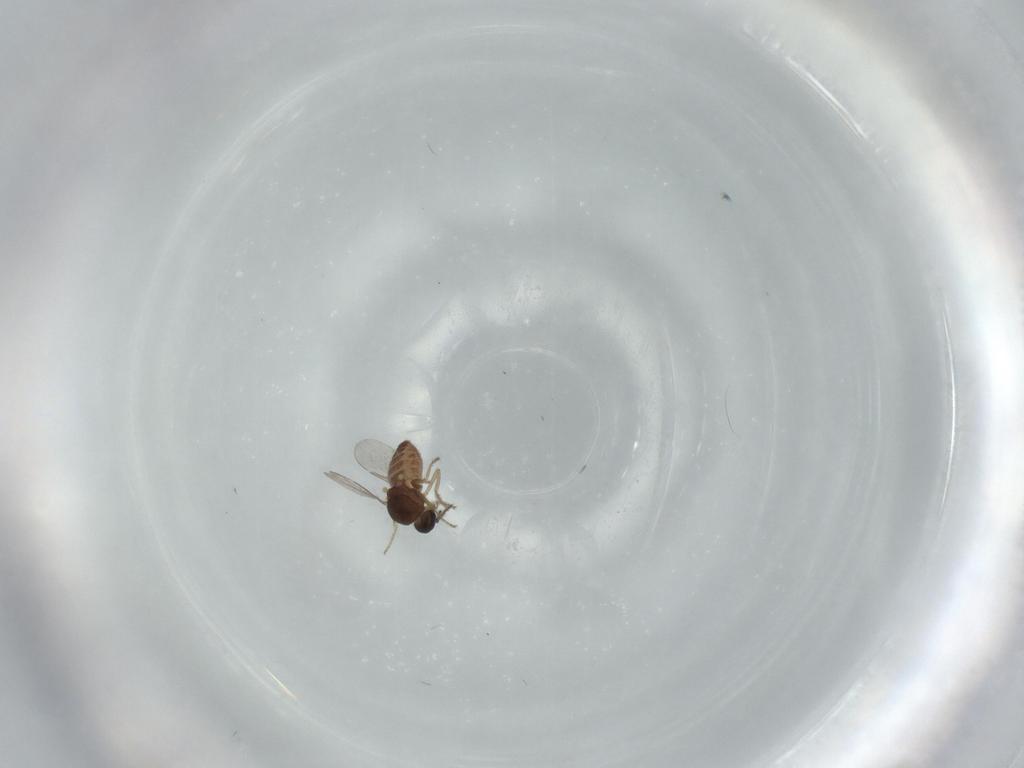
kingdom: Animalia
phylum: Arthropoda
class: Insecta
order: Diptera
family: Ceratopogonidae
